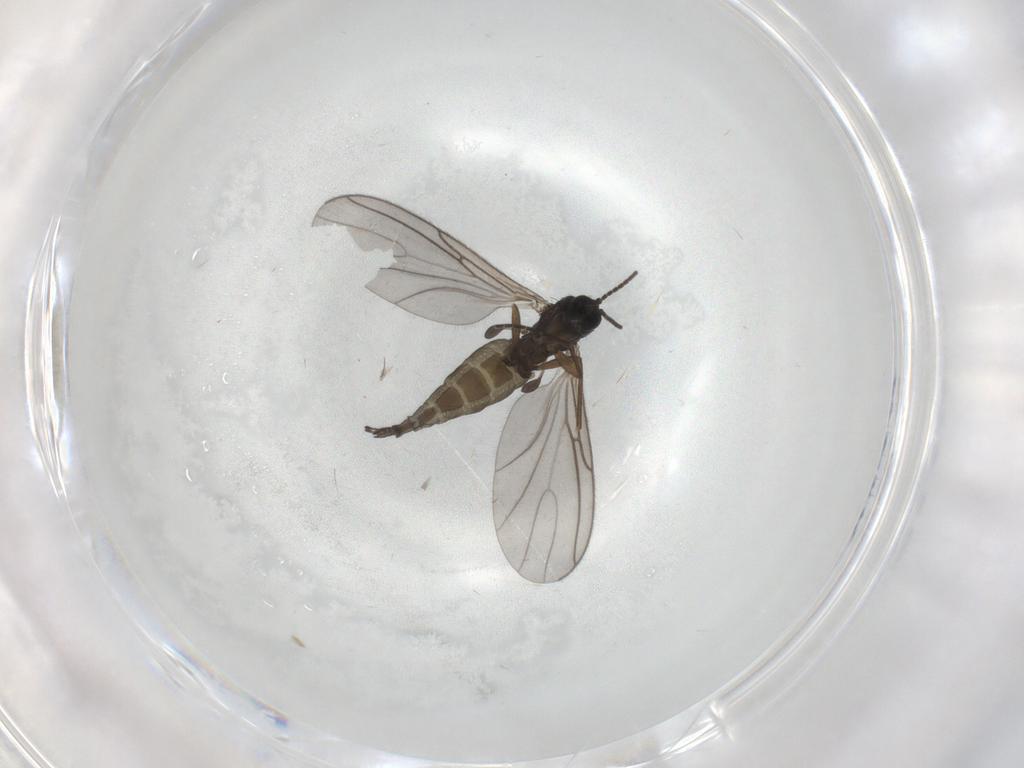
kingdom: Animalia
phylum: Arthropoda
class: Insecta
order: Diptera
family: Sciaridae
